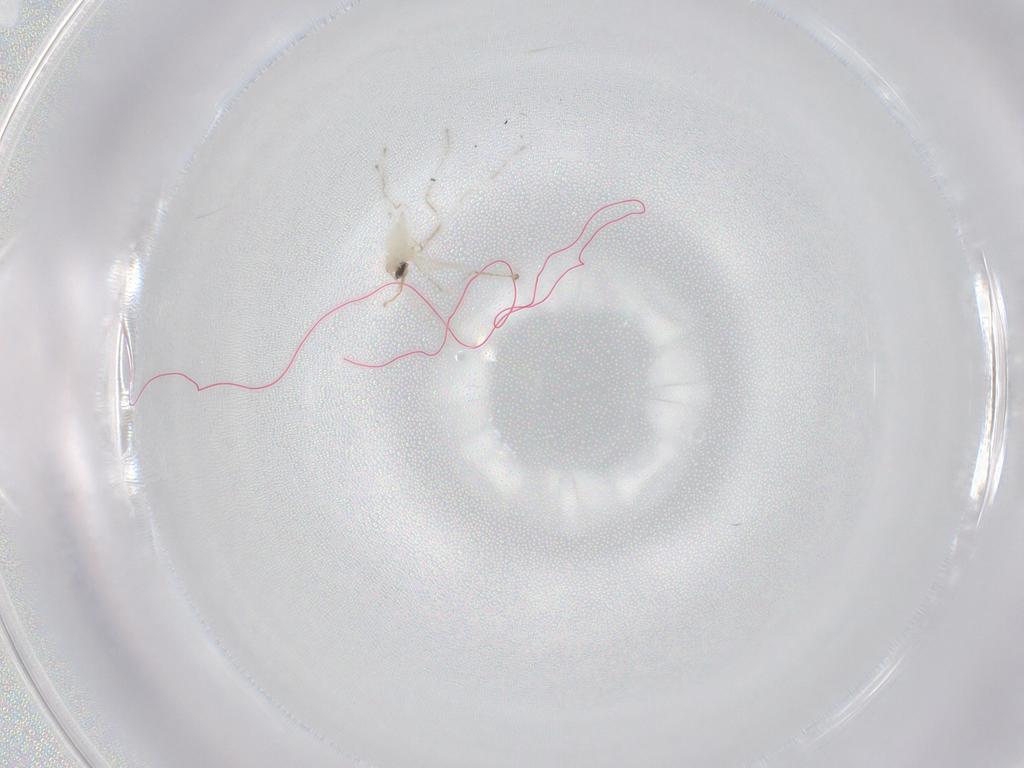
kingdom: Animalia
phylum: Arthropoda
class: Insecta
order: Diptera
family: Cecidomyiidae
